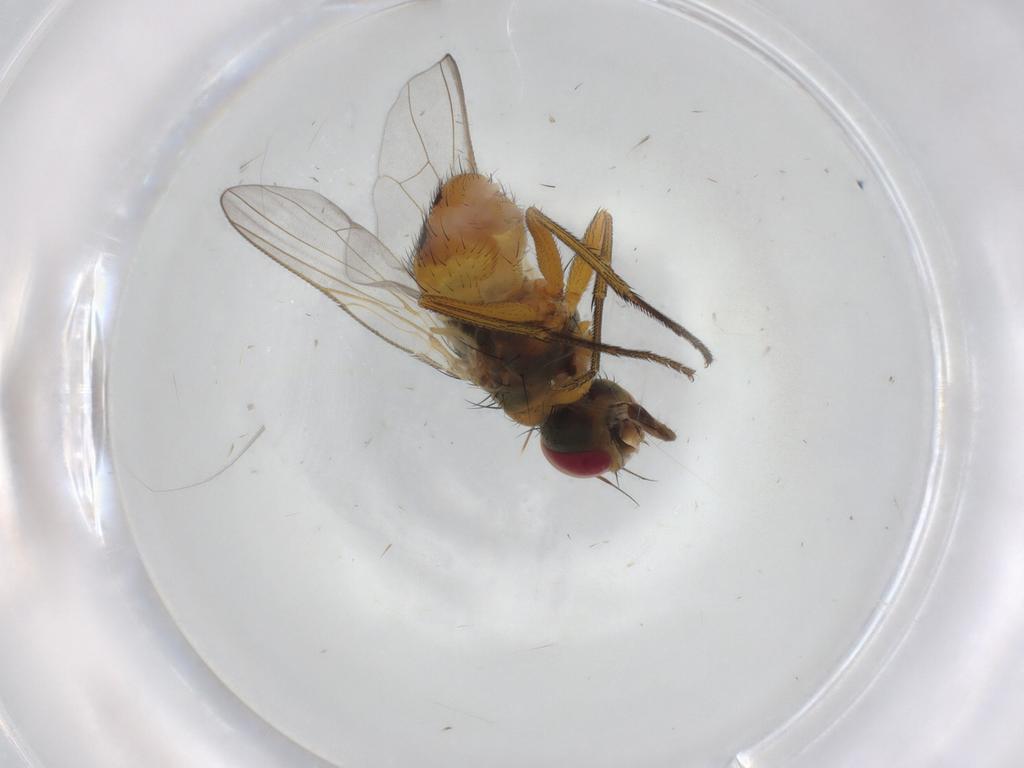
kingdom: Animalia
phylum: Arthropoda
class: Insecta
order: Diptera
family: Muscidae
